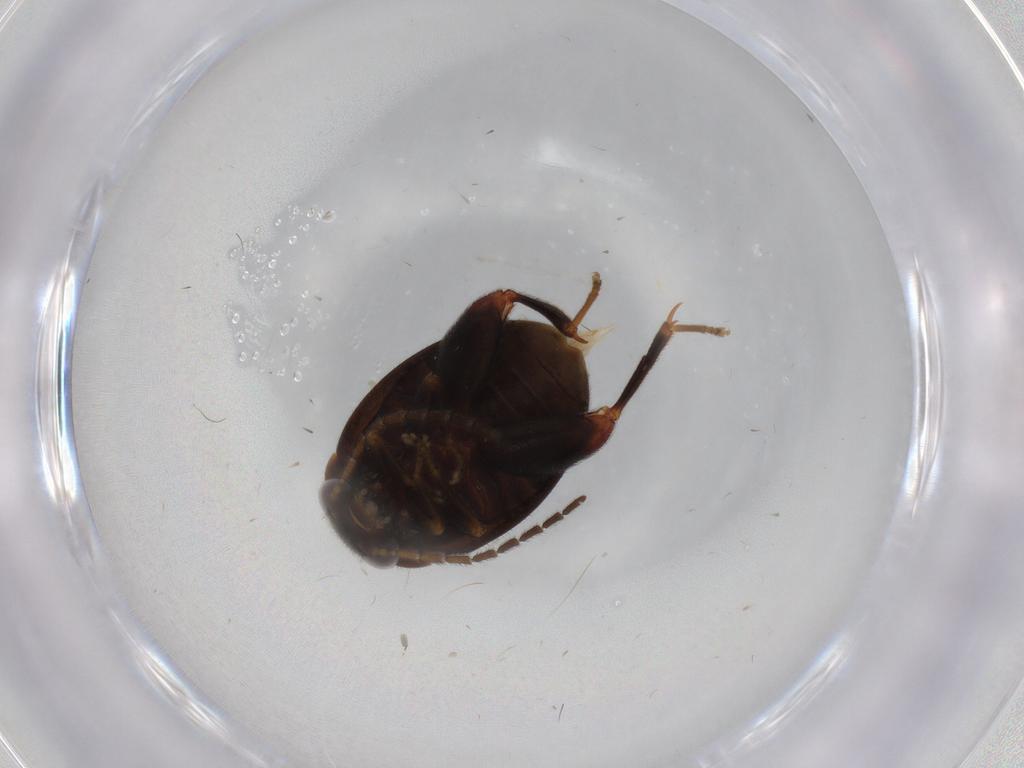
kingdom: Animalia
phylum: Arthropoda
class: Insecta
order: Coleoptera
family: Scirtidae
